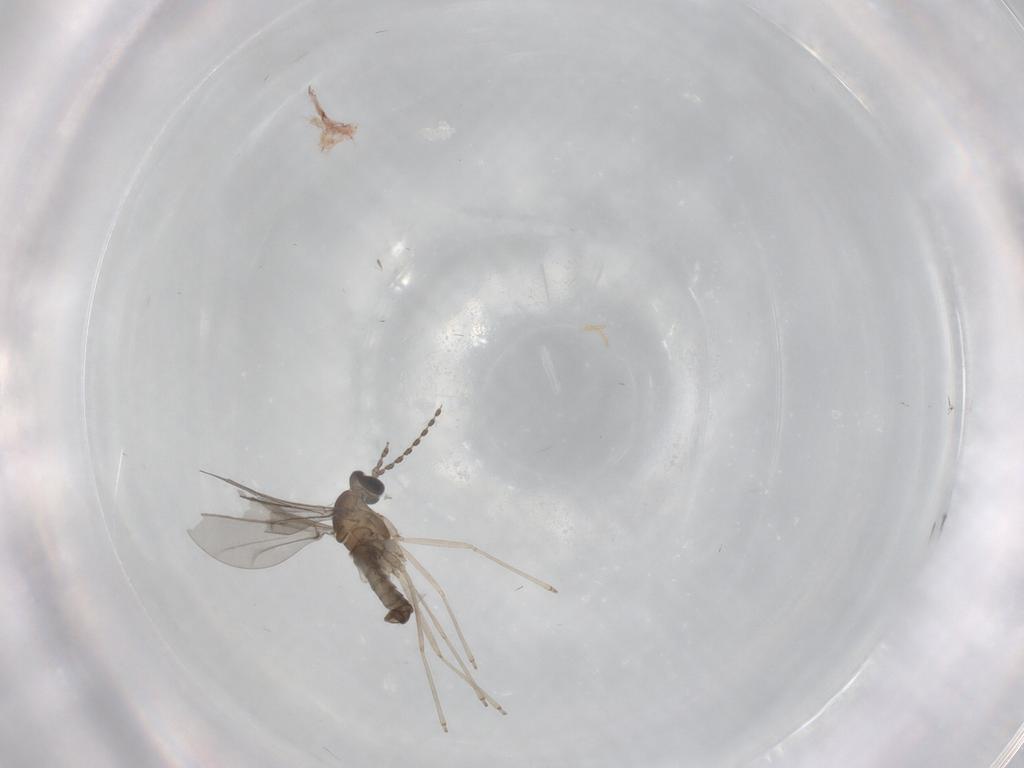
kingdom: Animalia
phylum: Arthropoda
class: Insecta
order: Diptera
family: Cecidomyiidae
